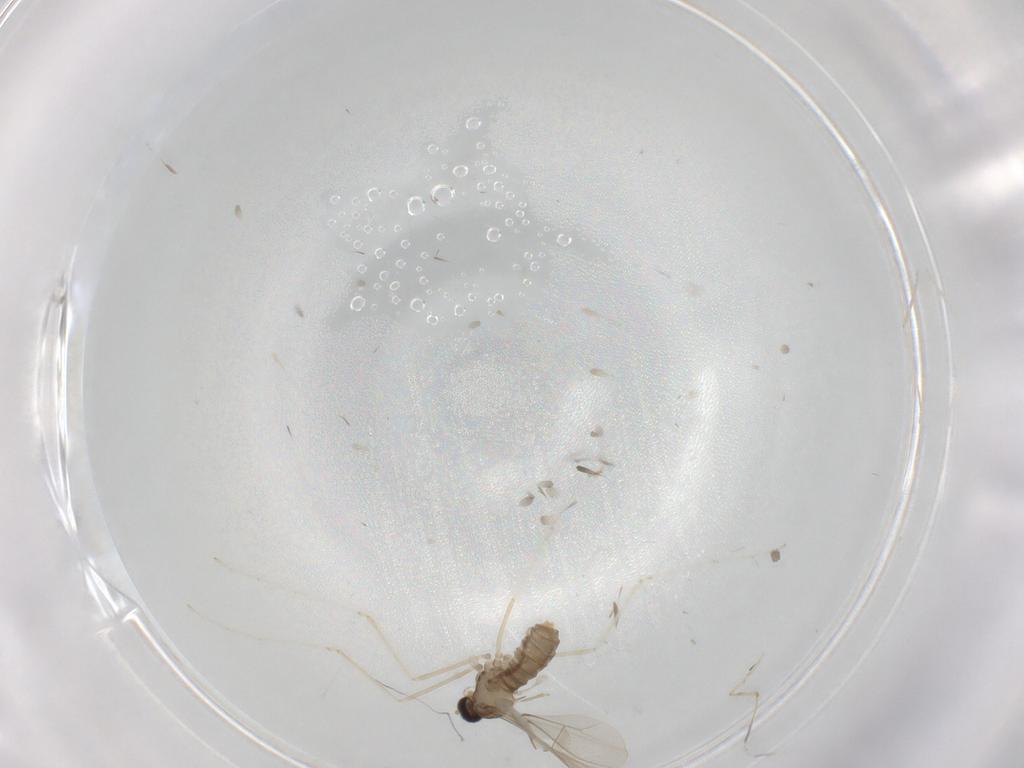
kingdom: Animalia
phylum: Arthropoda
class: Insecta
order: Diptera
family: Cecidomyiidae
